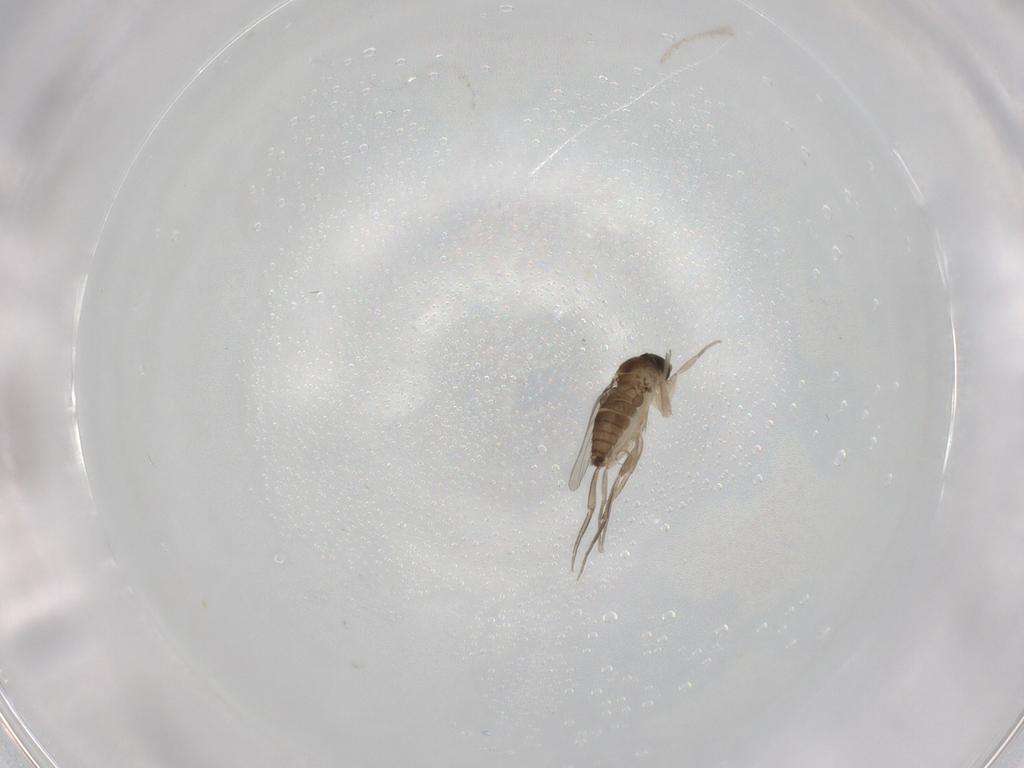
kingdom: Animalia
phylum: Arthropoda
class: Insecta
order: Diptera
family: Phoridae
